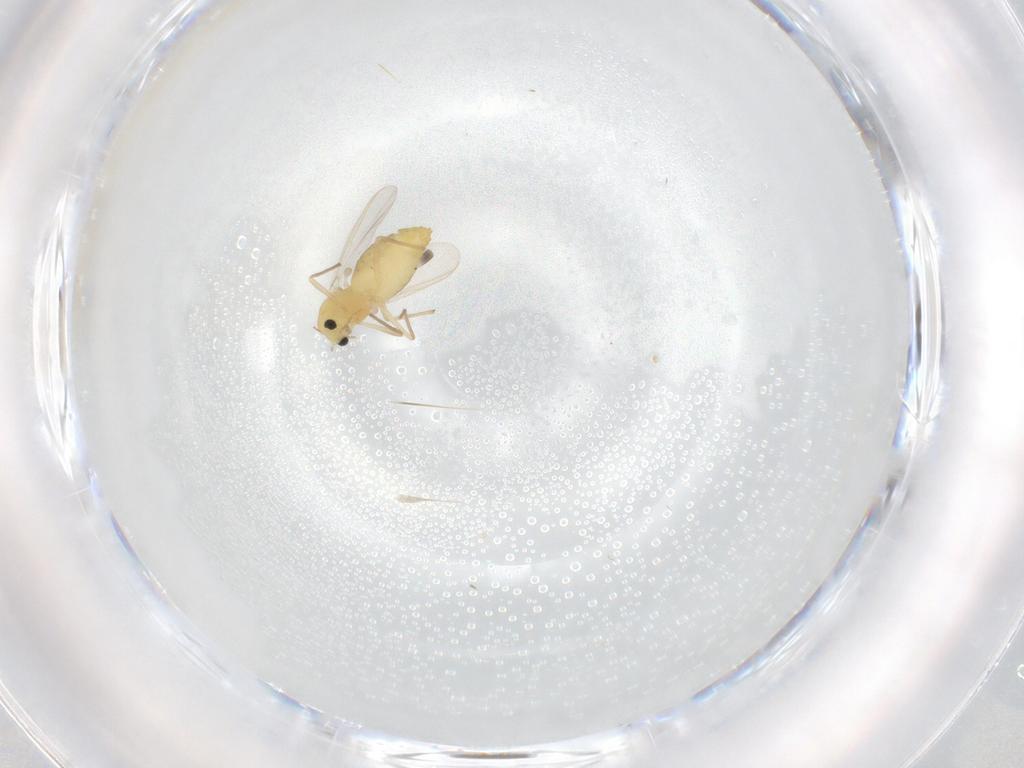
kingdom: Animalia
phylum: Arthropoda
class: Insecta
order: Diptera
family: Chironomidae
